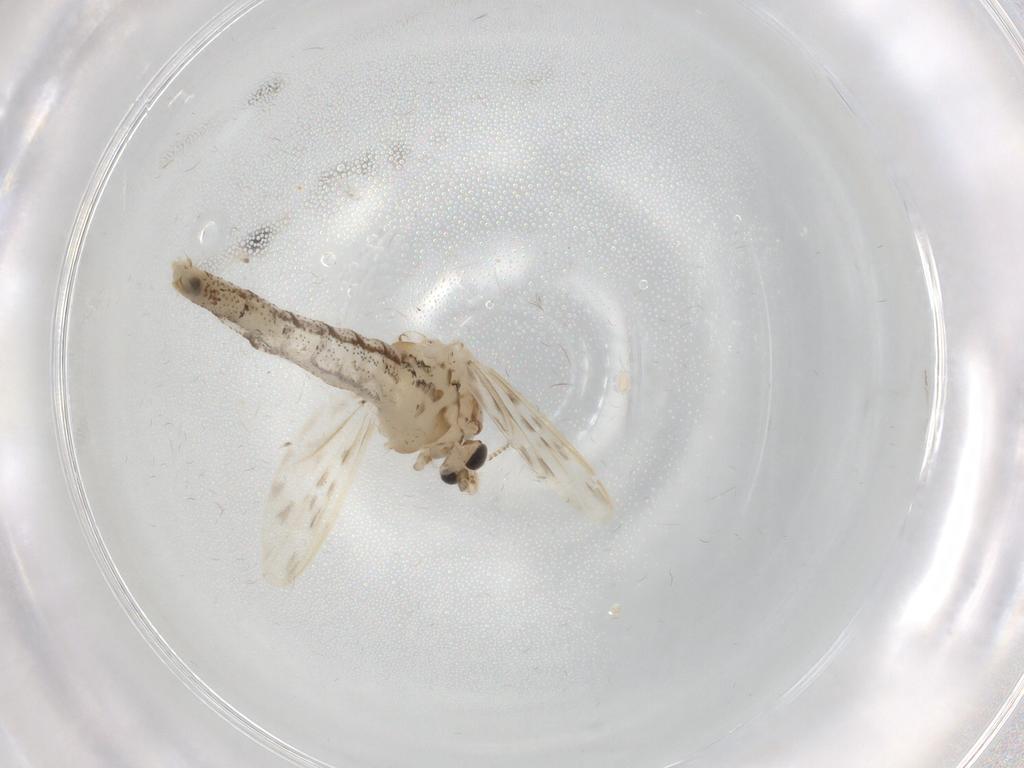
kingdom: Animalia
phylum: Arthropoda
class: Insecta
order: Diptera
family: Chaoboridae
